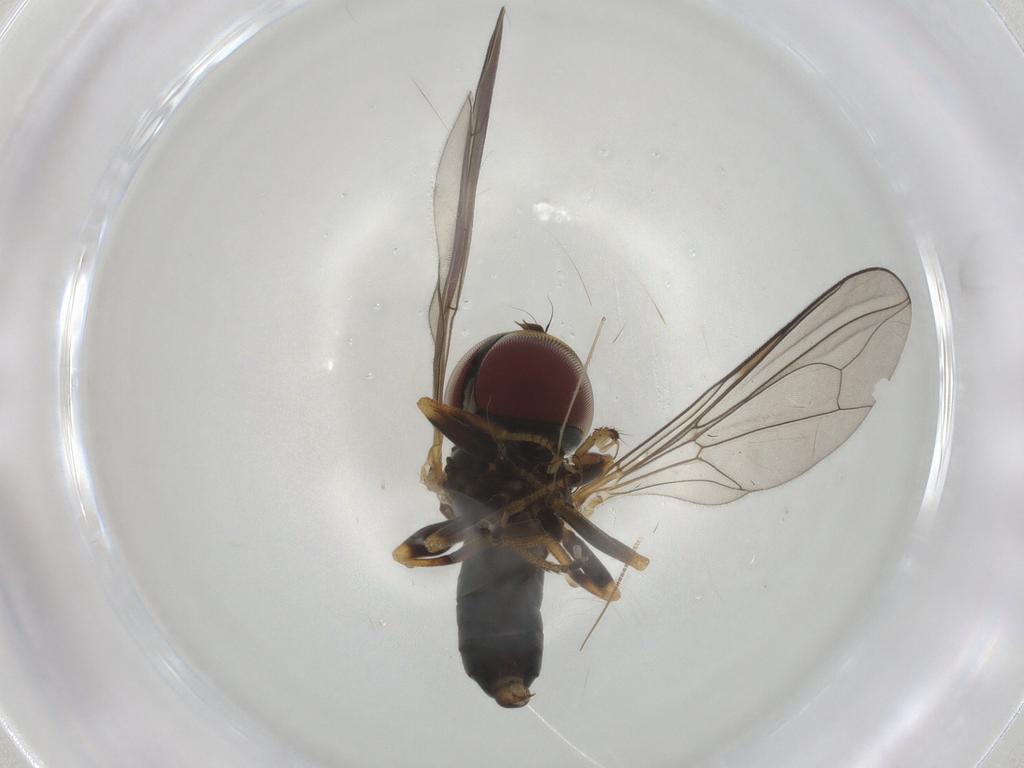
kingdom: Animalia
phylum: Arthropoda
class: Insecta
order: Diptera
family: Pipunculidae
